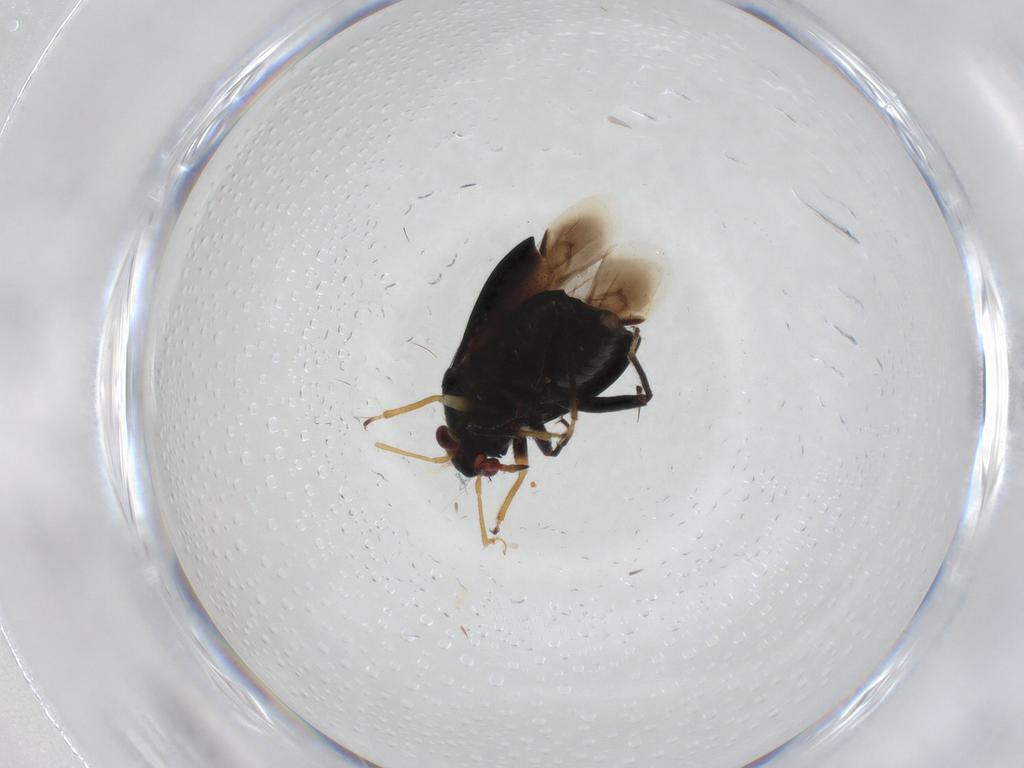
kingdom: Animalia
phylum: Arthropoda
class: Insecta
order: Hemiptera
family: Miridae
